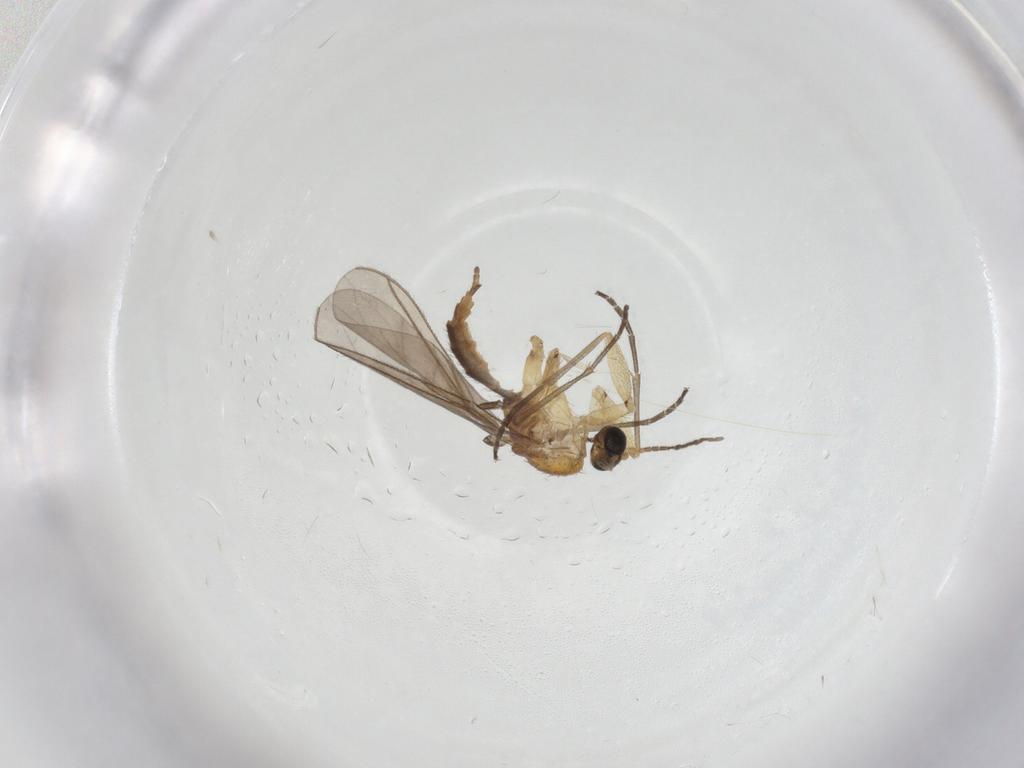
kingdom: Animalia
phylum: Arthropoda
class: Insecta
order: Diptera
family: Sciaridae
